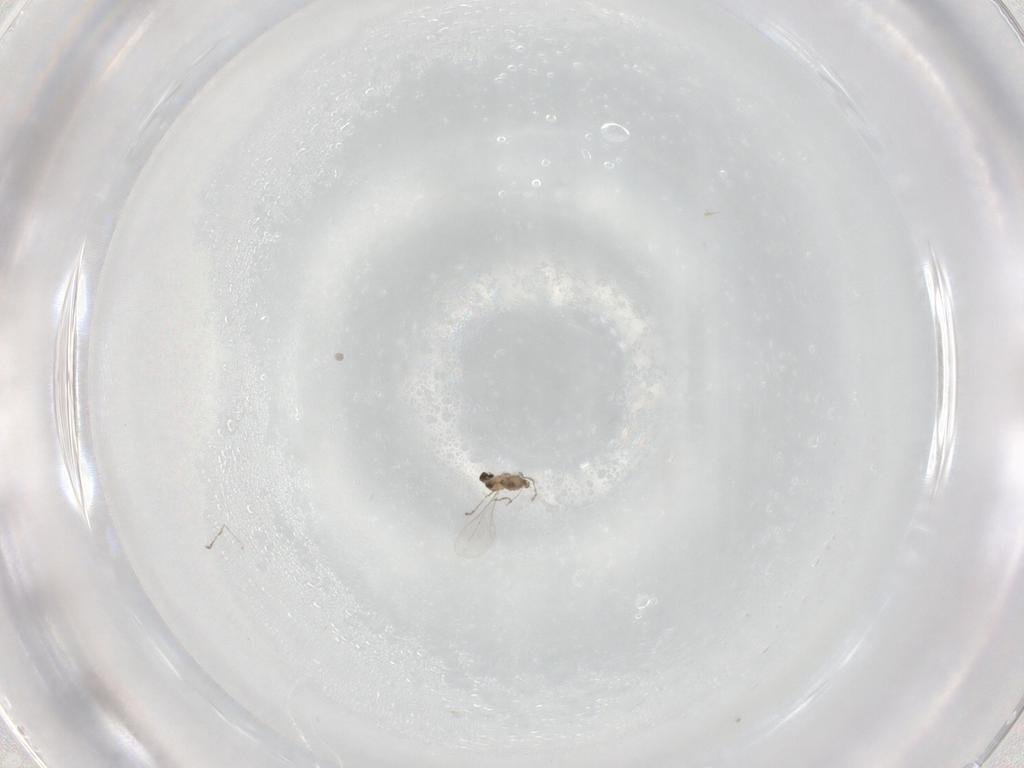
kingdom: Animalia
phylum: Arthropoda
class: Insecta
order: Diptera
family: Cecidomyiidae
